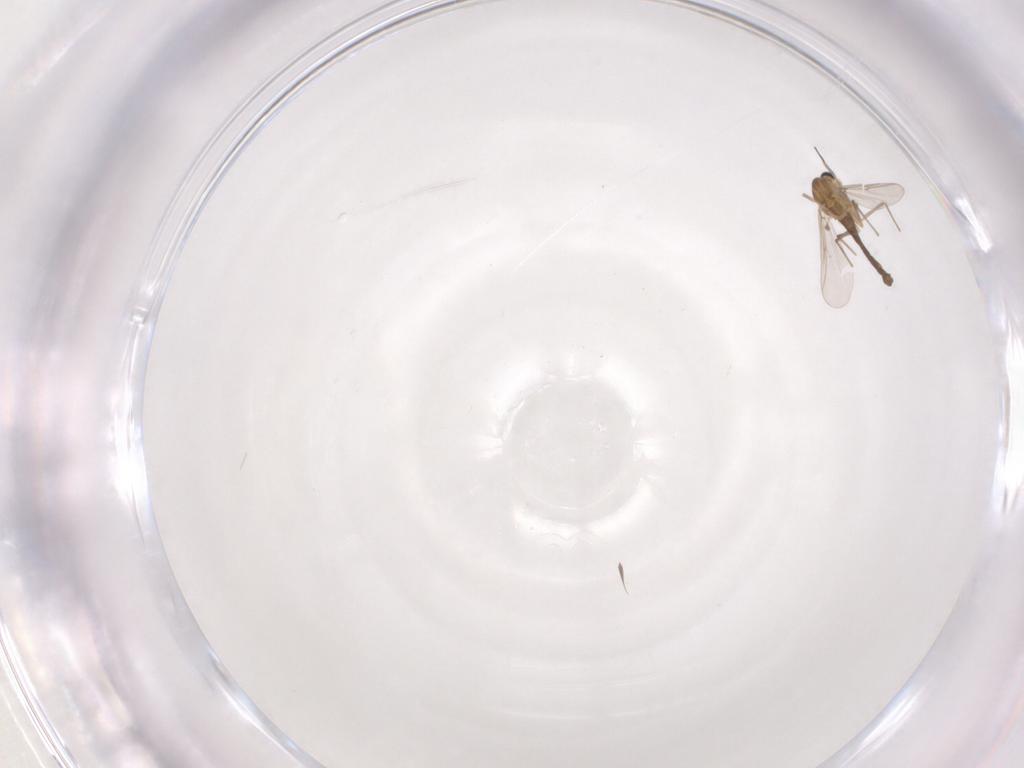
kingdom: Animalia
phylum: Arthropoda
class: Insecta
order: Diptera
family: Chironomidae
